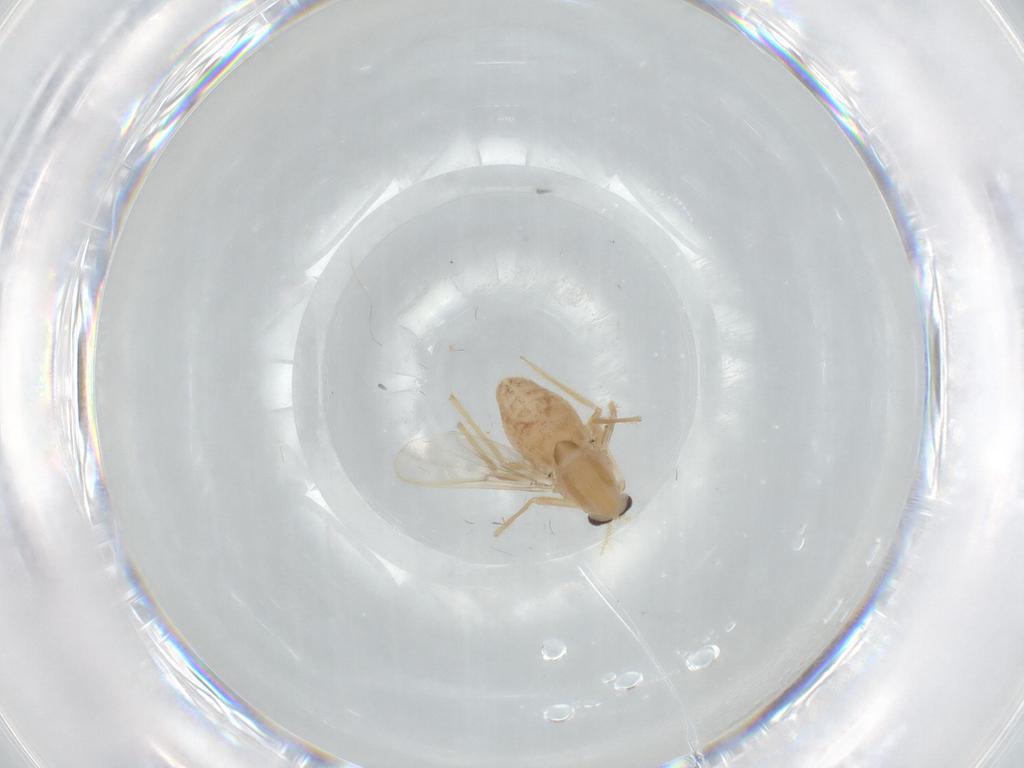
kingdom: Animalia
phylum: Arthropoda
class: Insecta
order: Diptera
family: Chironomidae
